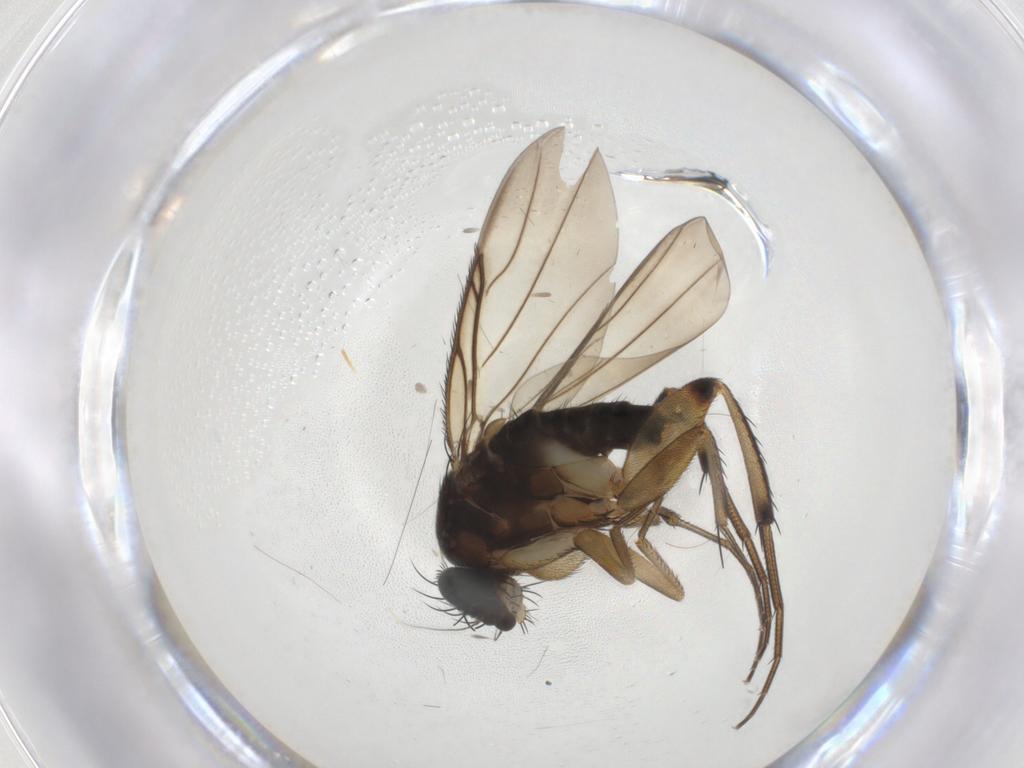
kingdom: Animalia
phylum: Arthropoda
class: Insecta
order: Diptera
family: Phoridae
